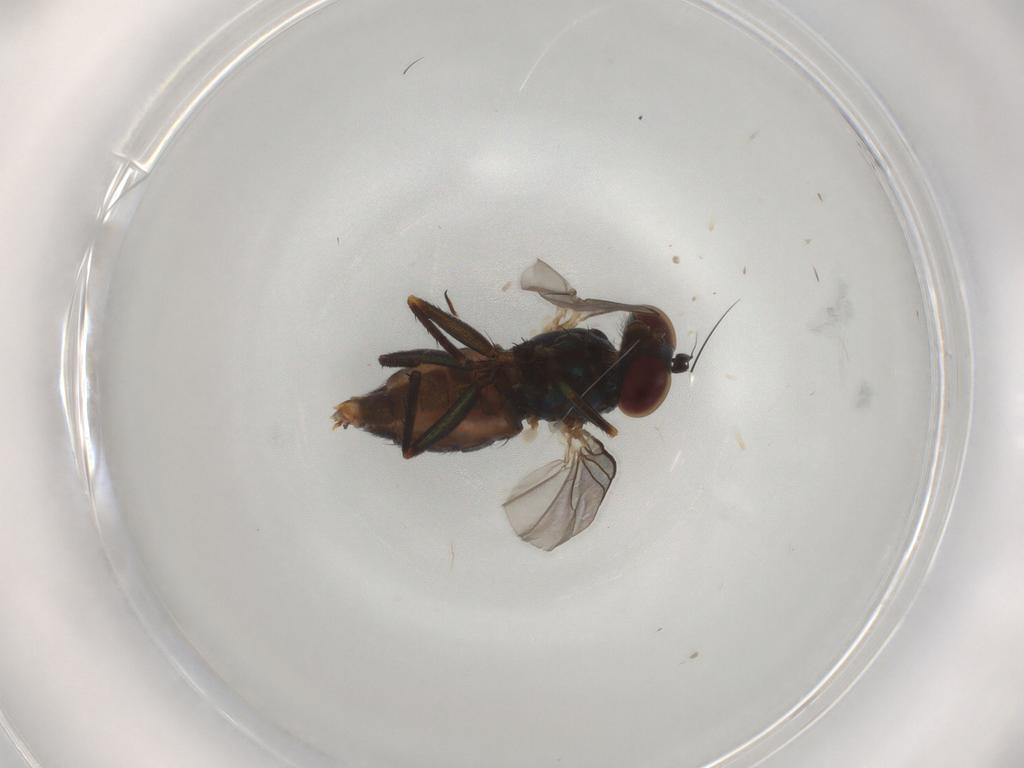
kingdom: Animalia
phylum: Arthropoda
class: Insecta
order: Diptera
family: Dolichopodidae
